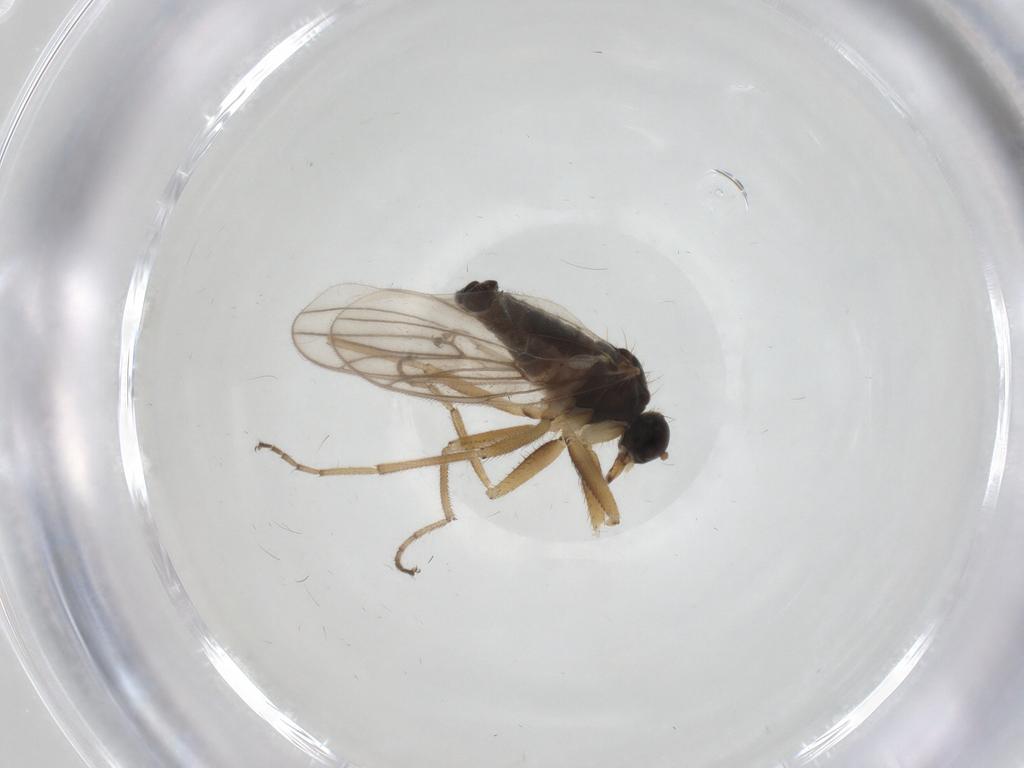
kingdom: Animalia
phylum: Arthropoda
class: Insecta
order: Diptera
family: Hybotidae
